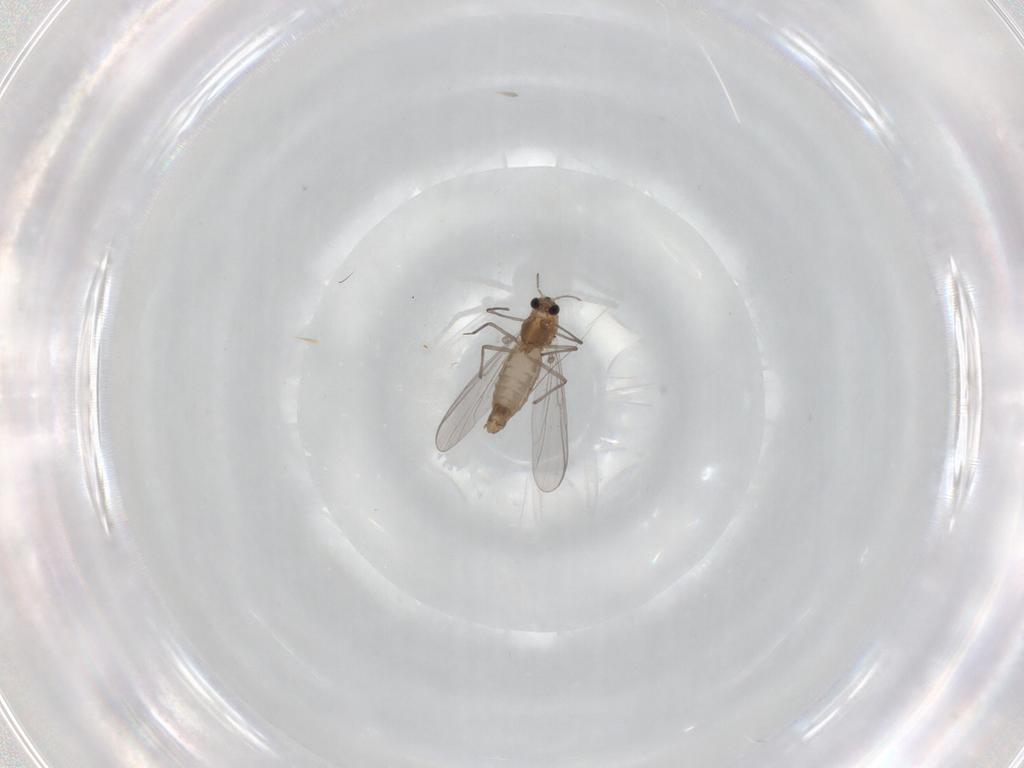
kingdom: Animalia
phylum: Arthropoda
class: Insecta
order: Diptera
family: Chironomidae
